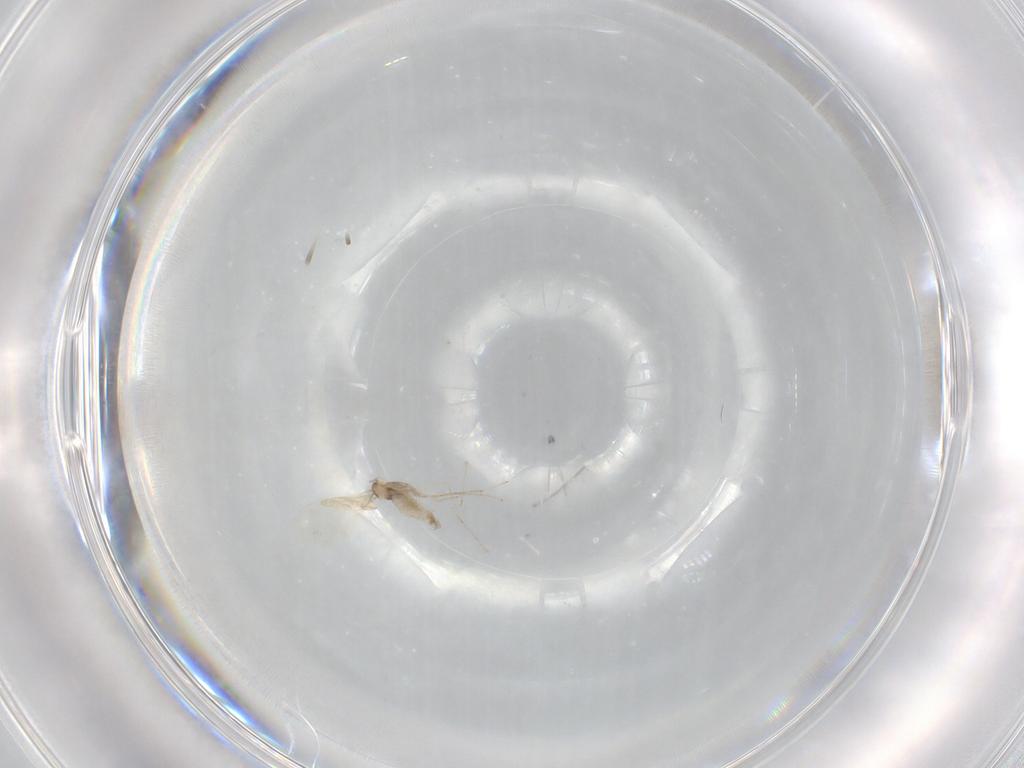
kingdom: Animalia
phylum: Arthropoda
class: Insecta
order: Diptera
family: Cecidomyiidae
